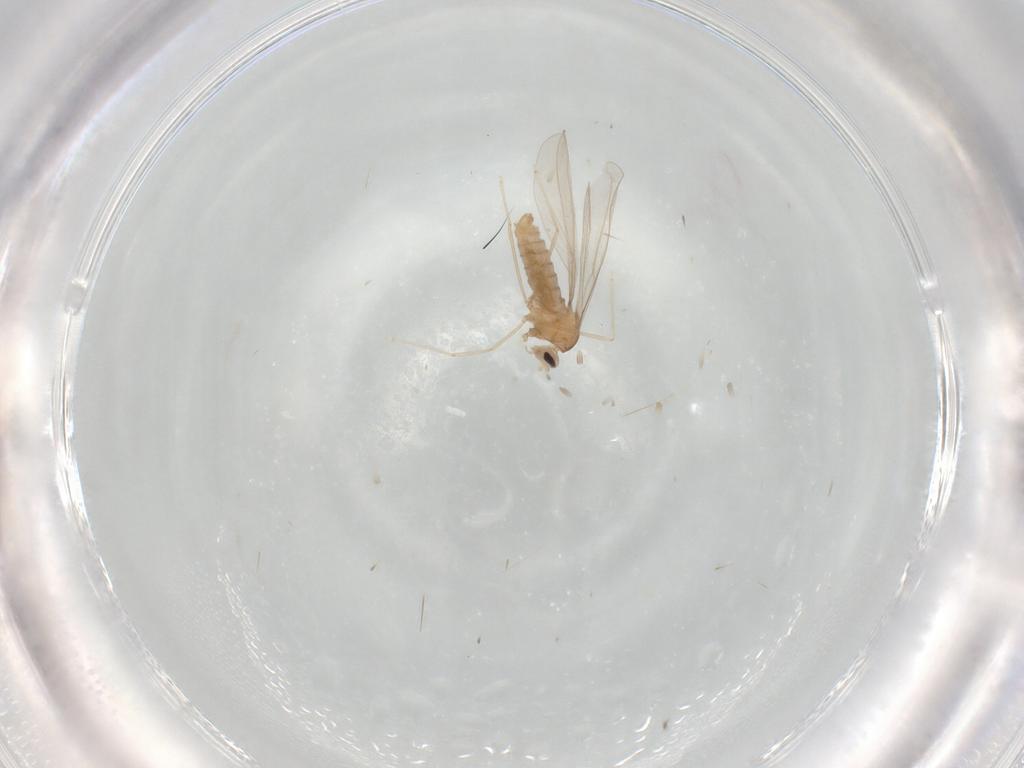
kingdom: Animalia
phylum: Arthropoda
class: Insecta
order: Diptera
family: Cecidomyiidae
